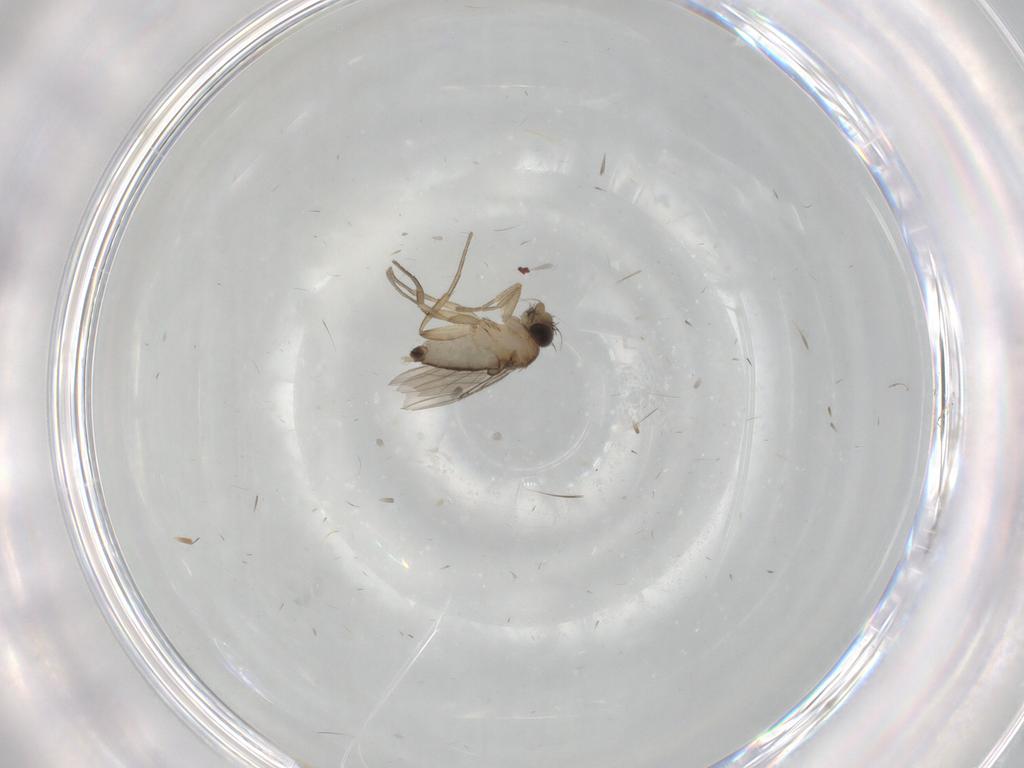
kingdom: Animalia
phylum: Arthropoda
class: Insecta
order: Diptera
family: Phoridae
